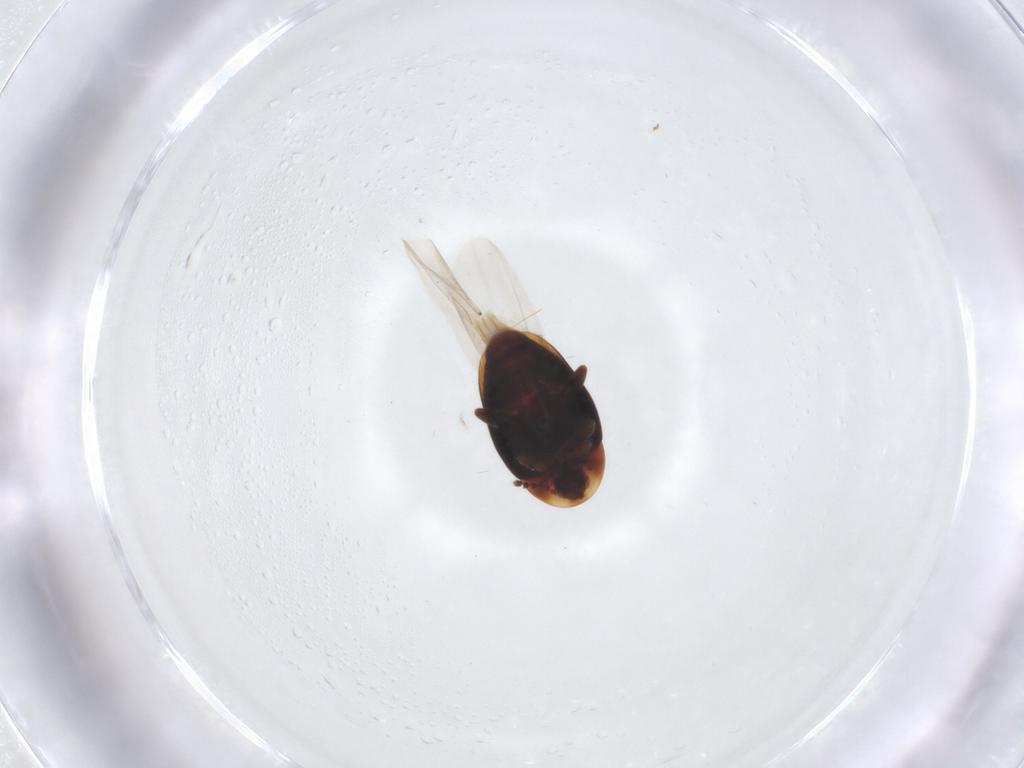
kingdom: Animalia
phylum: Arthropoda
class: Insecta
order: Coleoptera
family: Corylophidae
